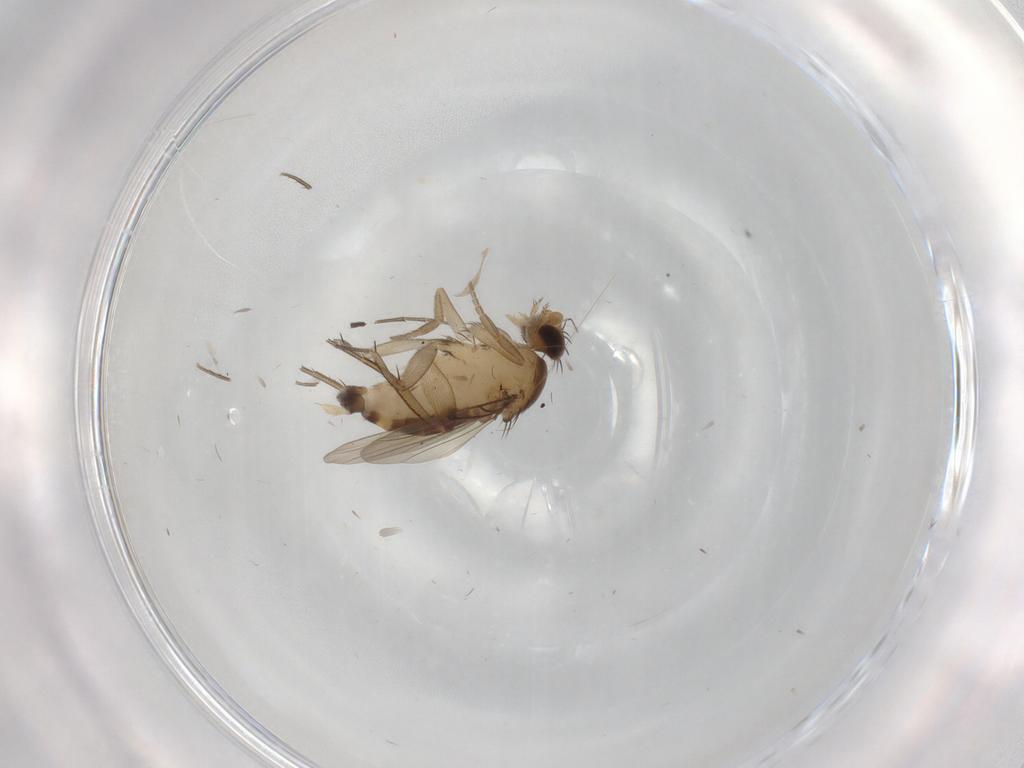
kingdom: Animalia
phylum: Arthropoda
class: Insecta
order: Diptera
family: Phoridae
